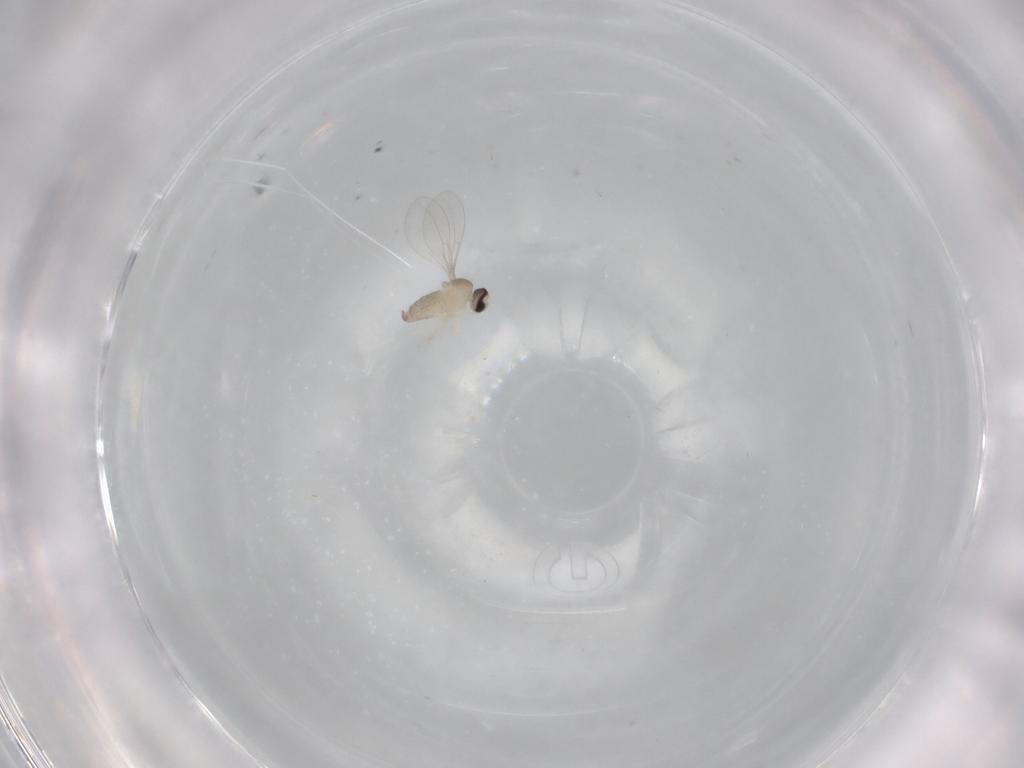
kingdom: Animalia
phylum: Arthropoda
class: Insecta
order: Diptera
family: Cecidomyiidae
